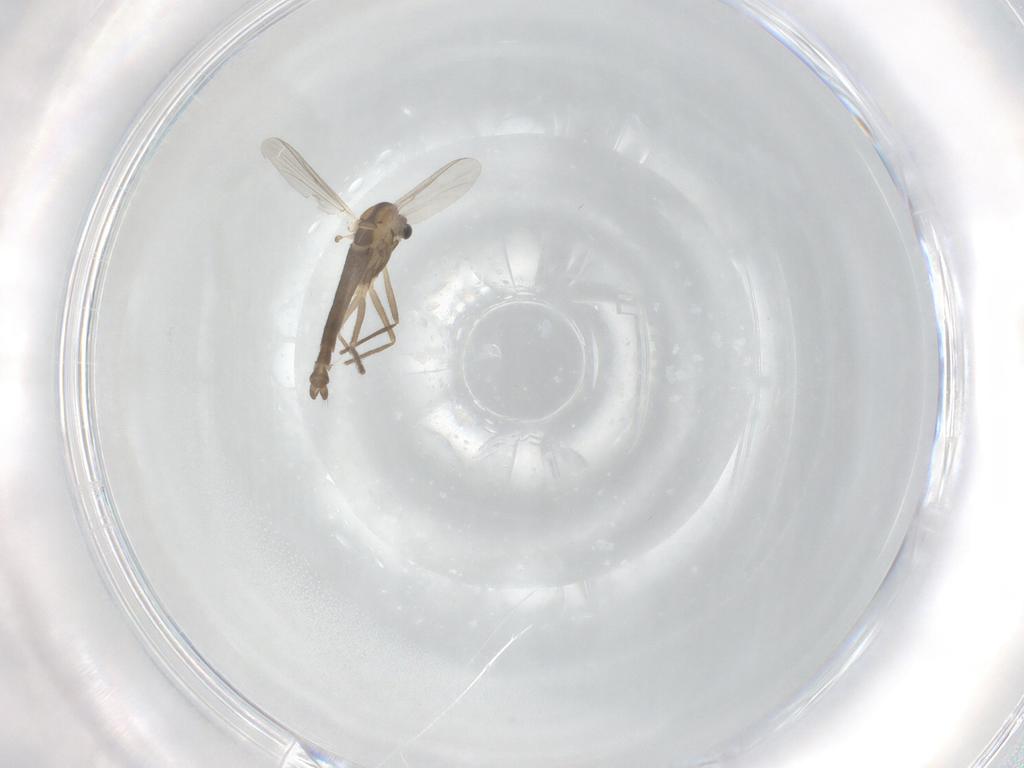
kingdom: Animalia
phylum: Arthropoda
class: Insecta
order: Diptera
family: Chironomidae
